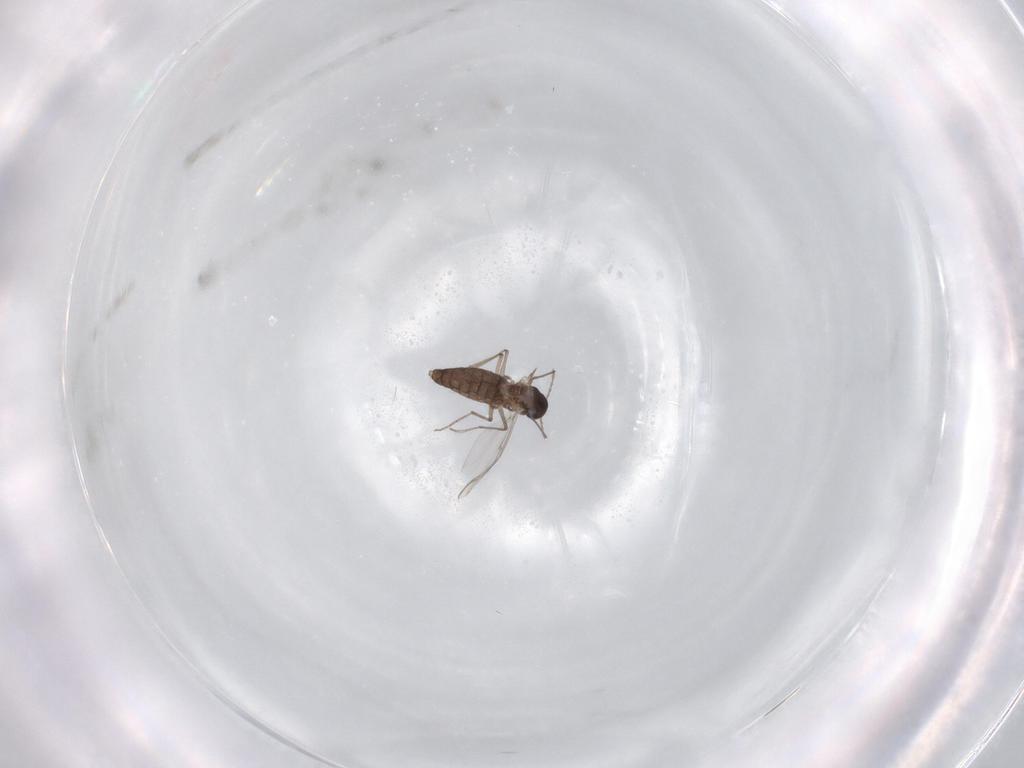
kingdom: Animalia
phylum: Arthropoda
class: Insecta
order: Diptera
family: Chironomidae
